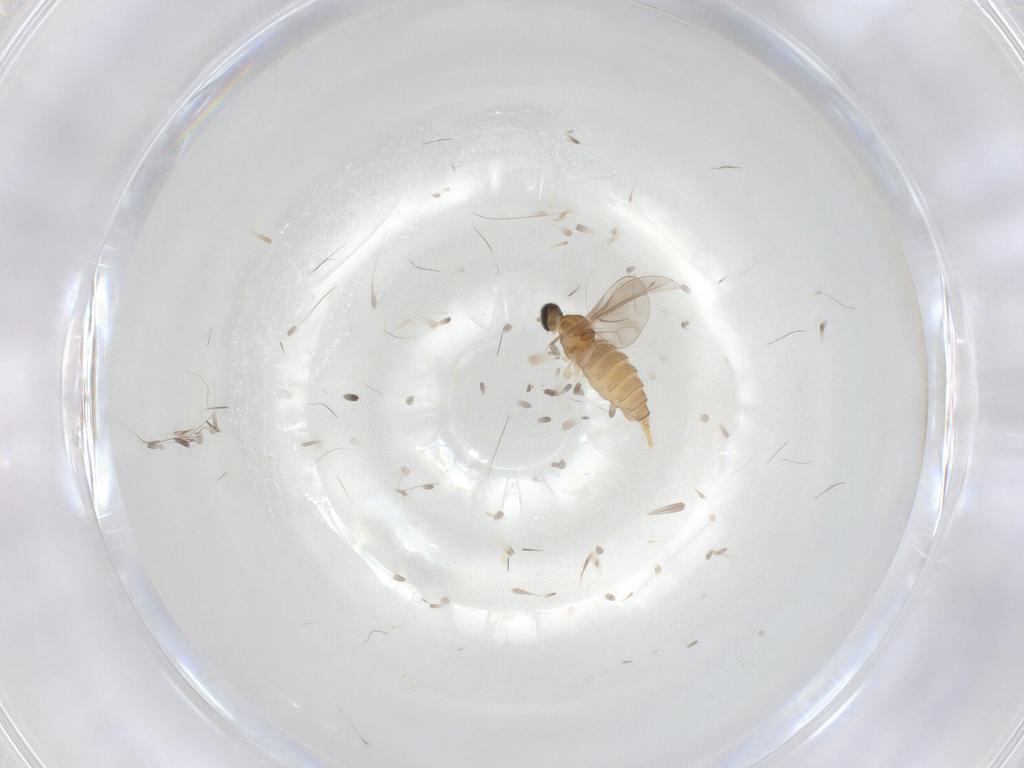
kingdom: Animalia
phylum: Arthropoda
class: Insecta
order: Diptera
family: Cecidomyiidae
